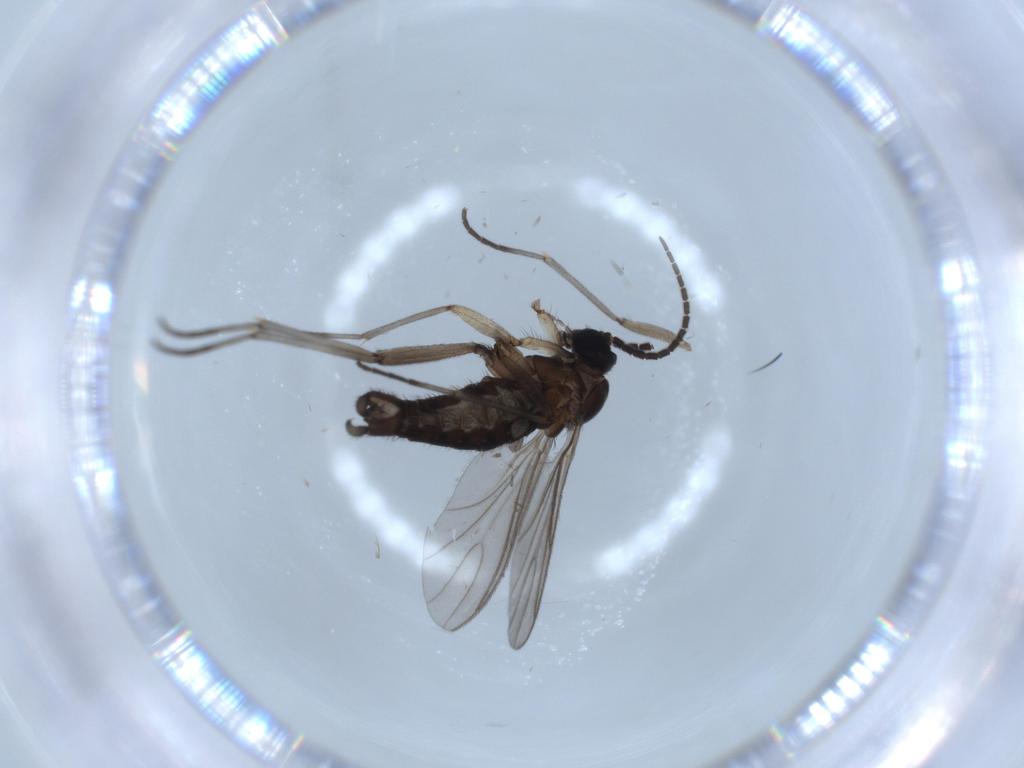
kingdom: Animalia
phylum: Arthropoda
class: Insecta
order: Diptera
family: Sciaridae
